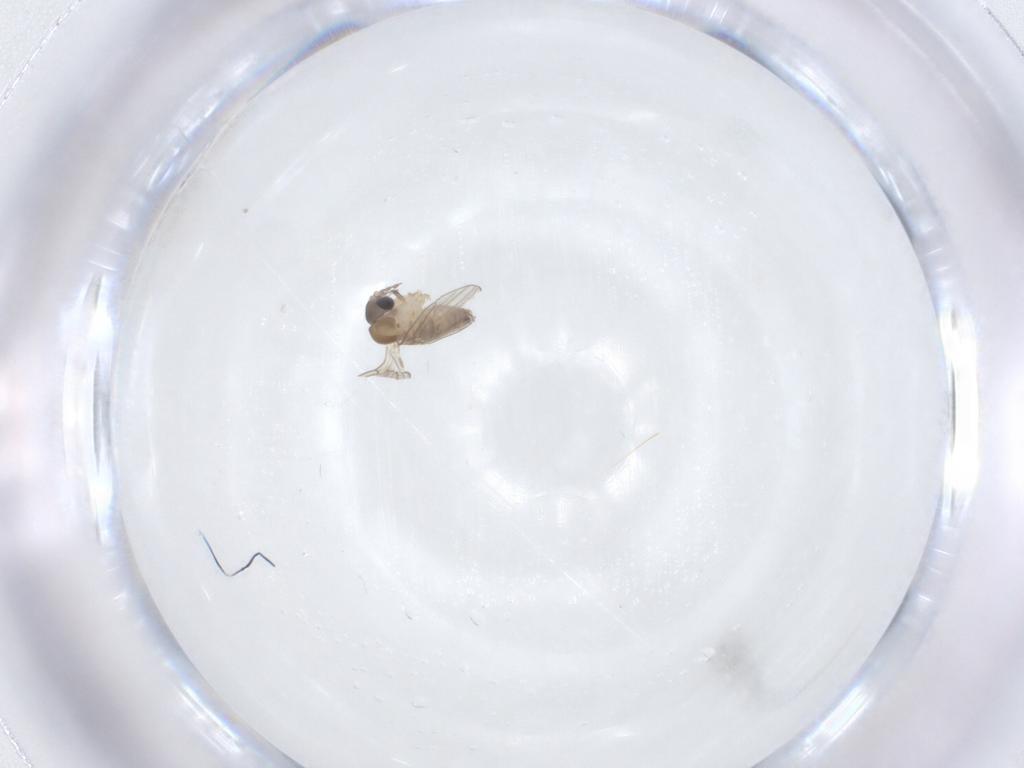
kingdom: Animalia
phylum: Arthropoda
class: Insecta
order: Diptera
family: Psychodidae
